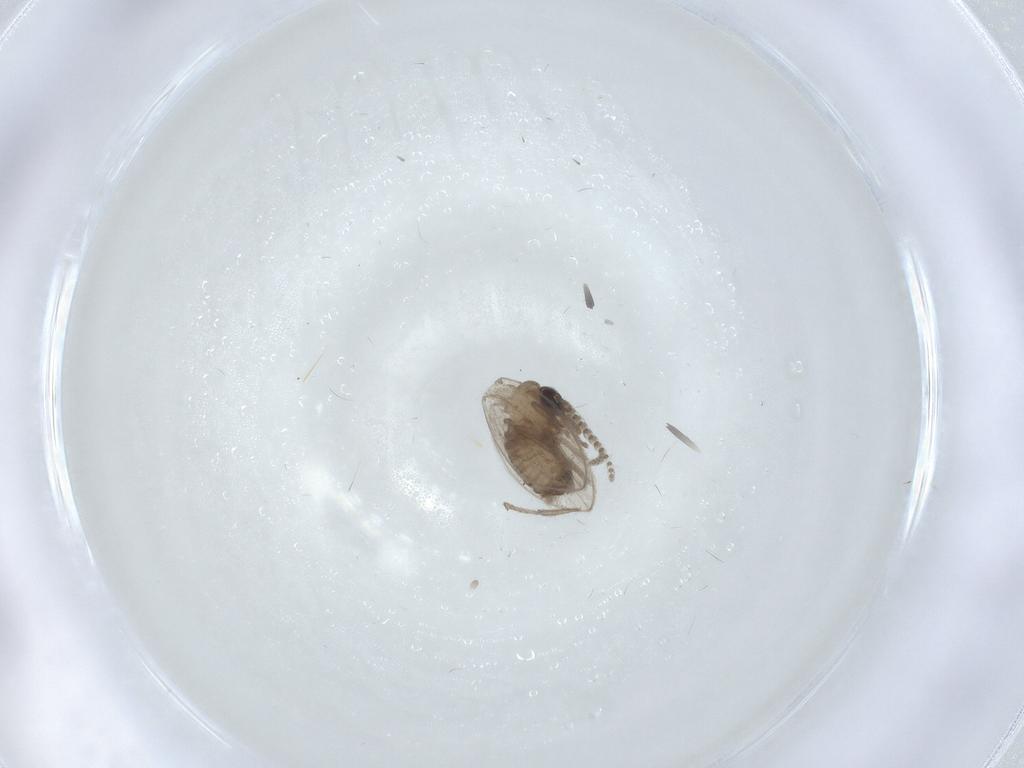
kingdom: Animalia
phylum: Arthropoda
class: Insecta
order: Diptera
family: Psychodidae
